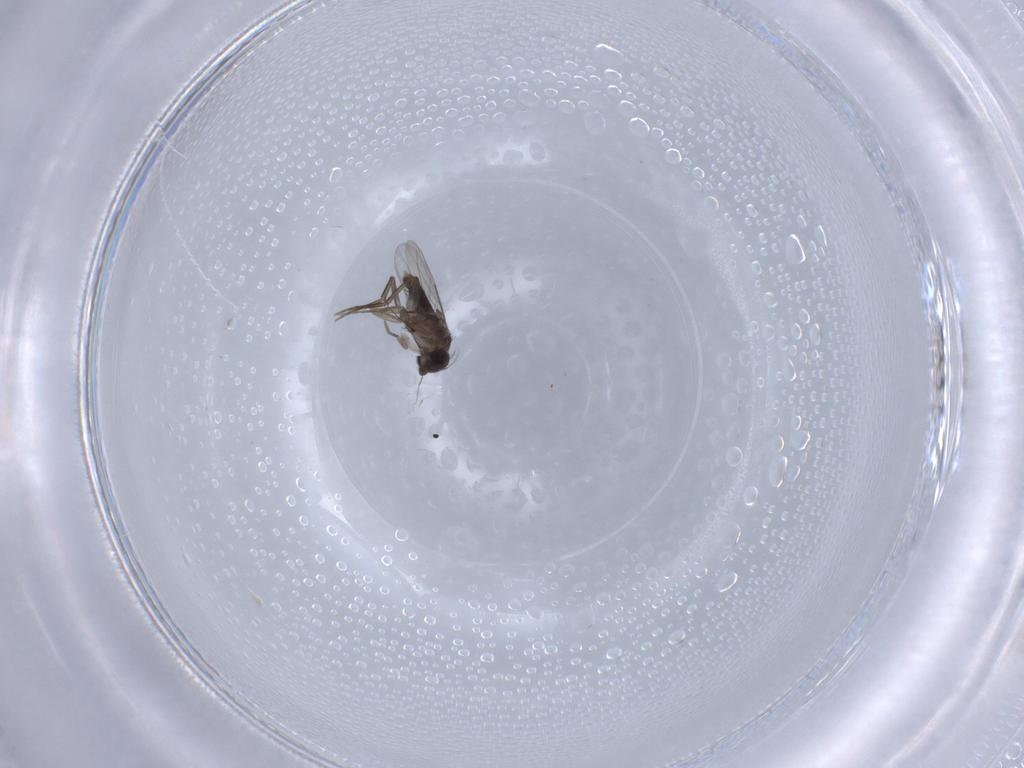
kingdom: Animalia
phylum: Arthropoda
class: Insecta
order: Diptera
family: Phoridae
